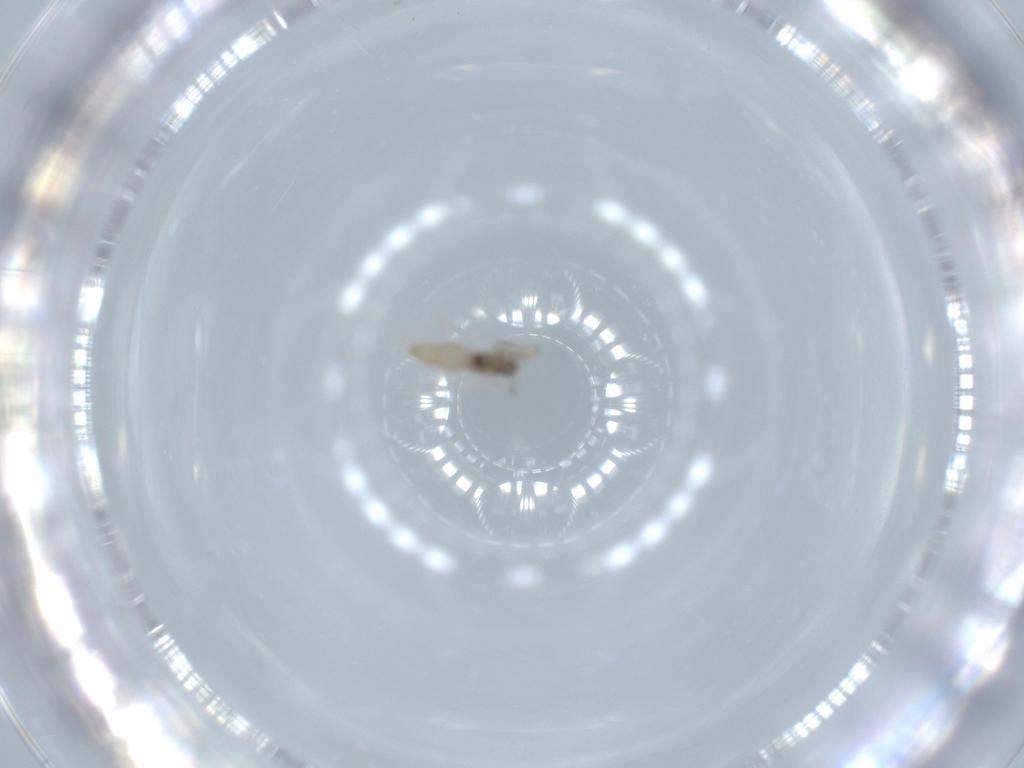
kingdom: Animalia
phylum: Arthropoda
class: Insecta
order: Diptera
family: Cecidomyiidae
